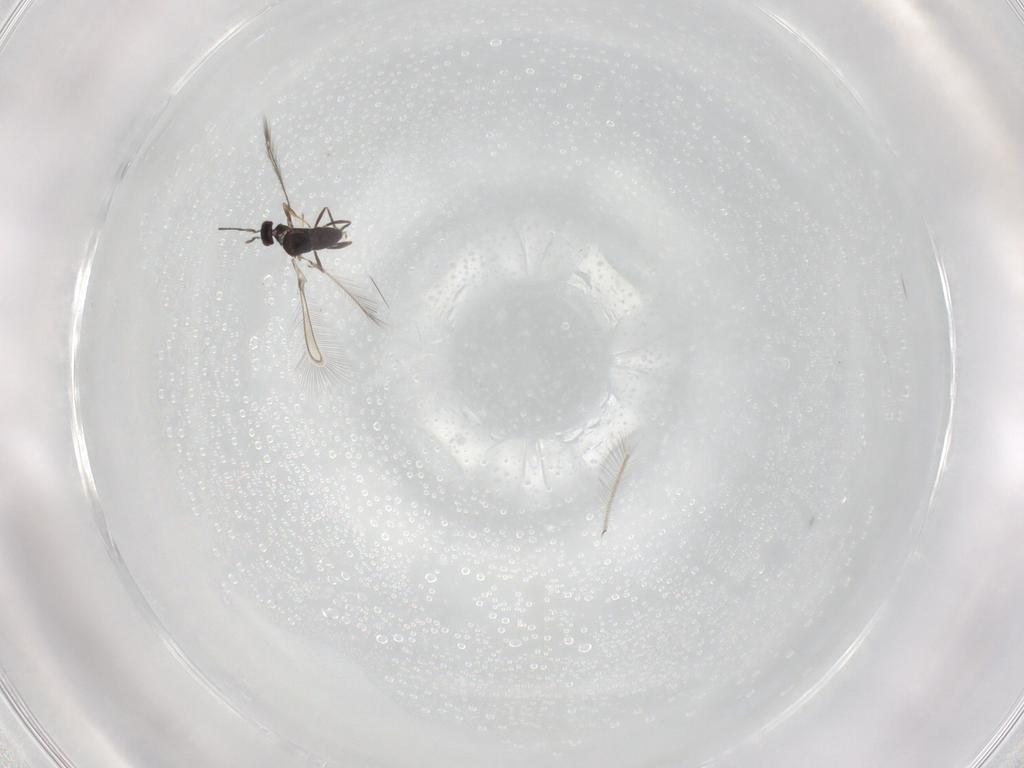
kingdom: Animalia
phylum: Arthropoda
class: Insecta
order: Hymenoptera
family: Mymaridae
